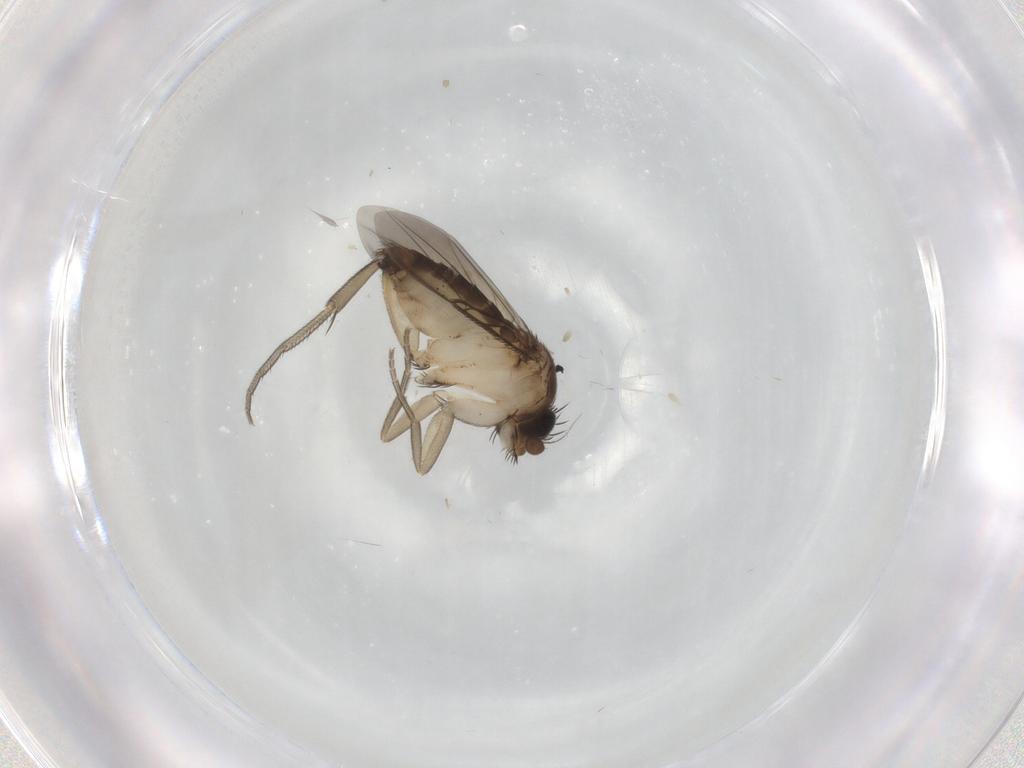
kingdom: Animalia
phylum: Arthropoda
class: Insecta
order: Diptera
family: Phoridae
